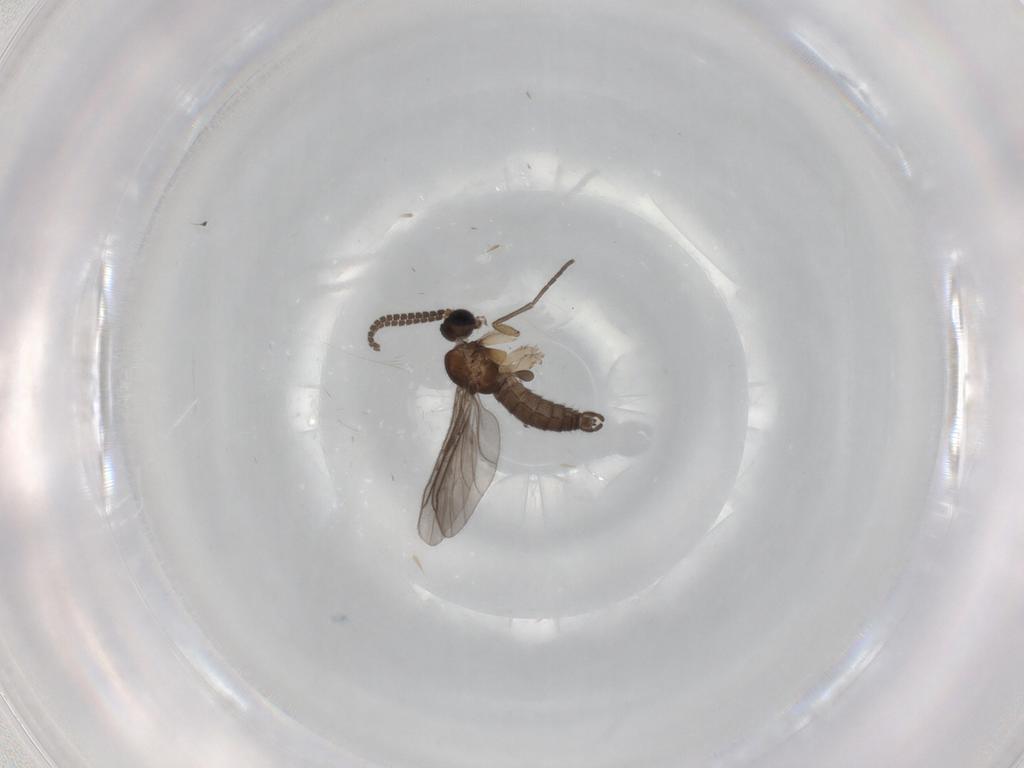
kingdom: Animalia
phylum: Arthropoda
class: Insecta
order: Diptera
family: Sciaridae
